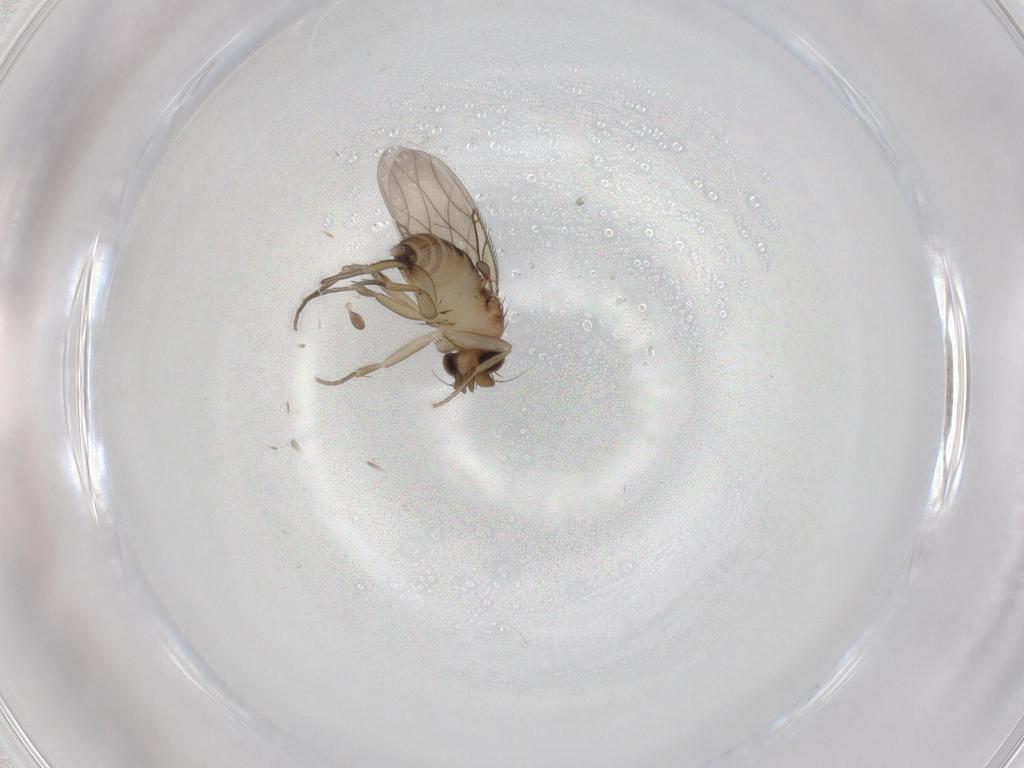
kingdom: Animalia
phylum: Arthropoda
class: Insecta
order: Diptera
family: Phoridae
